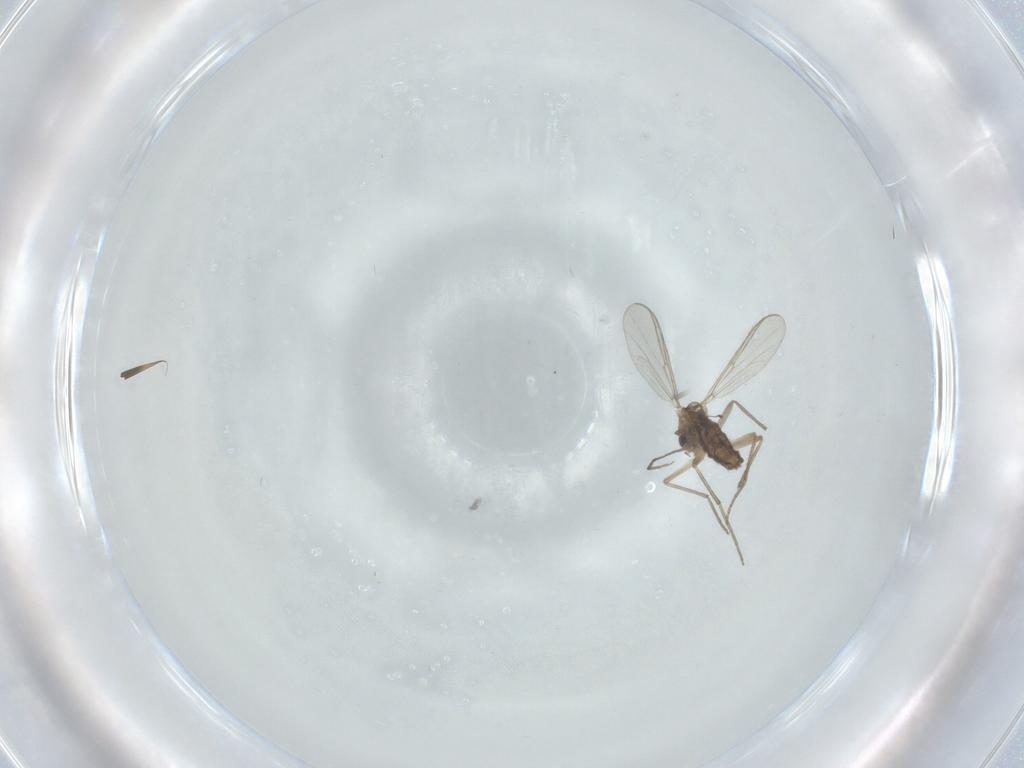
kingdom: Animalia
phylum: Arthropoda
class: Insecta
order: Diptera
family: Chironomidae
